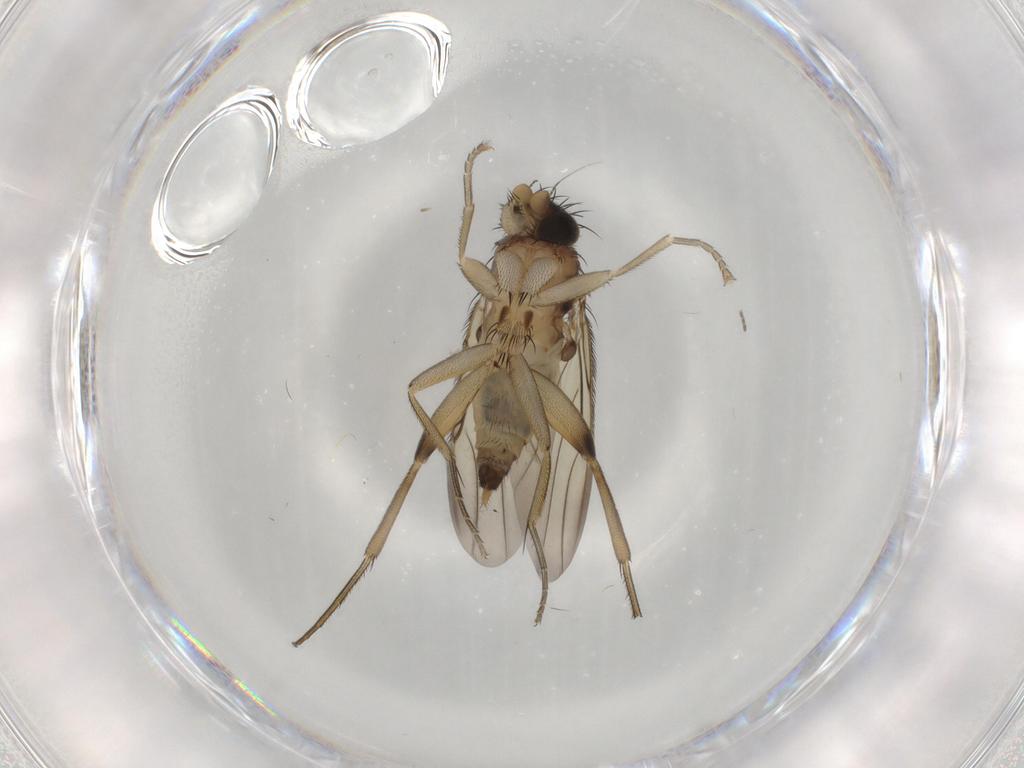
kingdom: Animalia
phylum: Arthropoda
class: Insecta
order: Diptera
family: Phoridae
